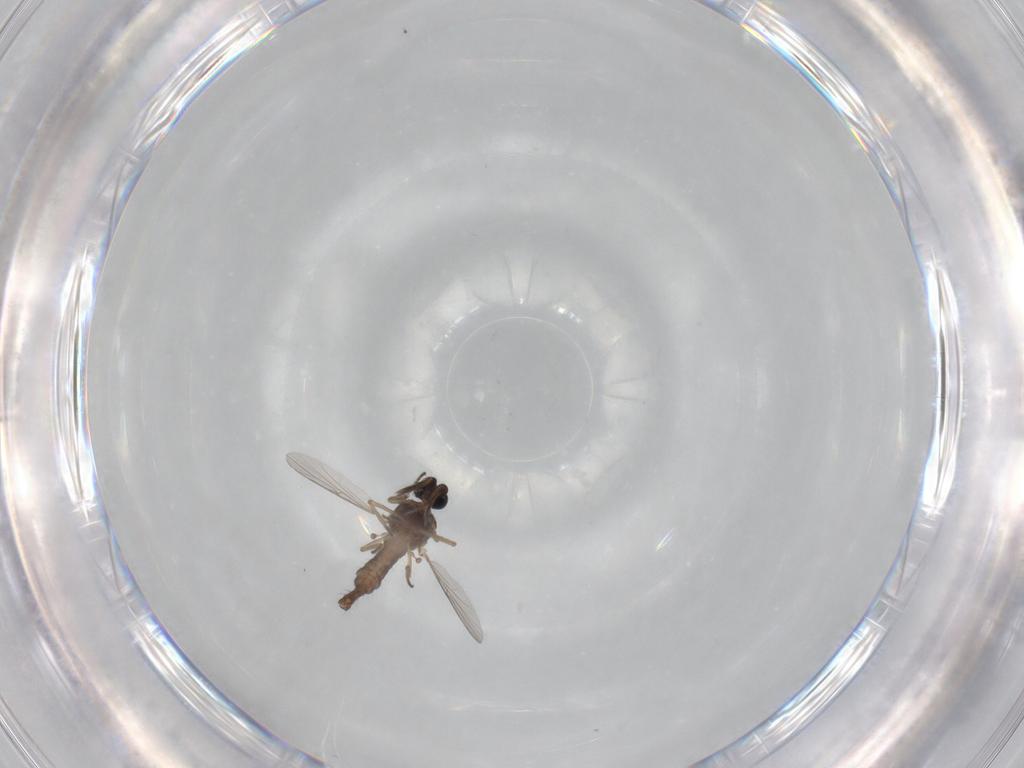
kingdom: Animalia
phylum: Arthropoda
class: Insecta
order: Diptera
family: Ceratopogonidae
